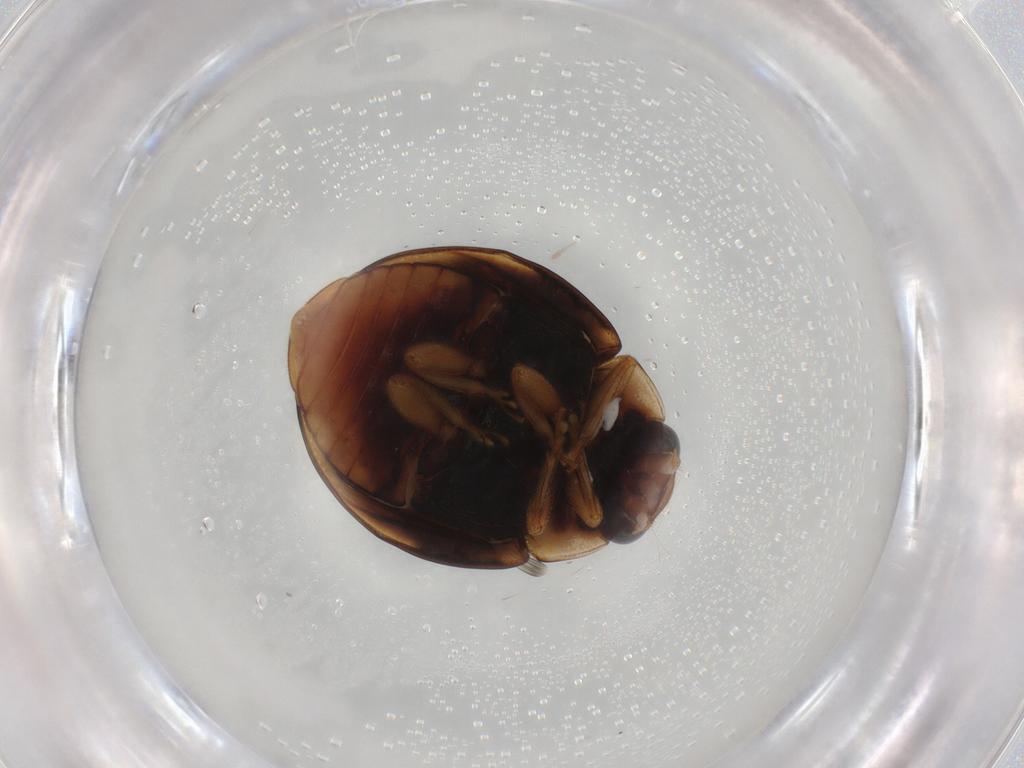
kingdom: Animalia
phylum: Arthropoda
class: Insecta
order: Coleoptera
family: Coccinellidae
